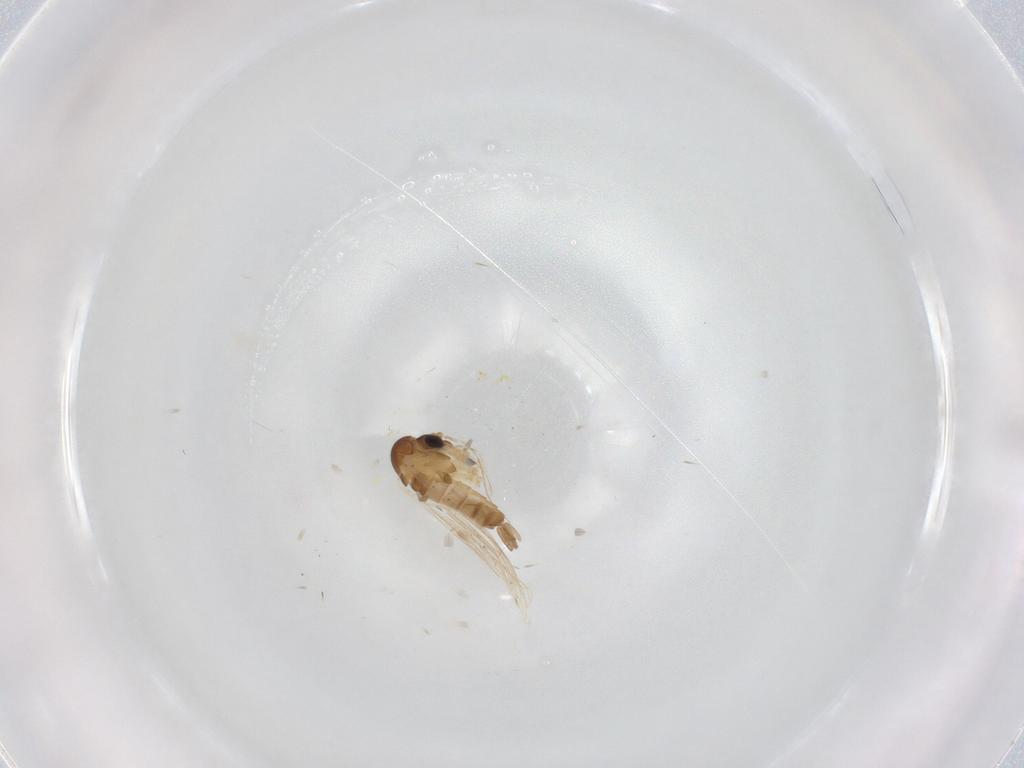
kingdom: Animalia
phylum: Arthropoda
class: Insecta
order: Diptera
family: Psychodidae
